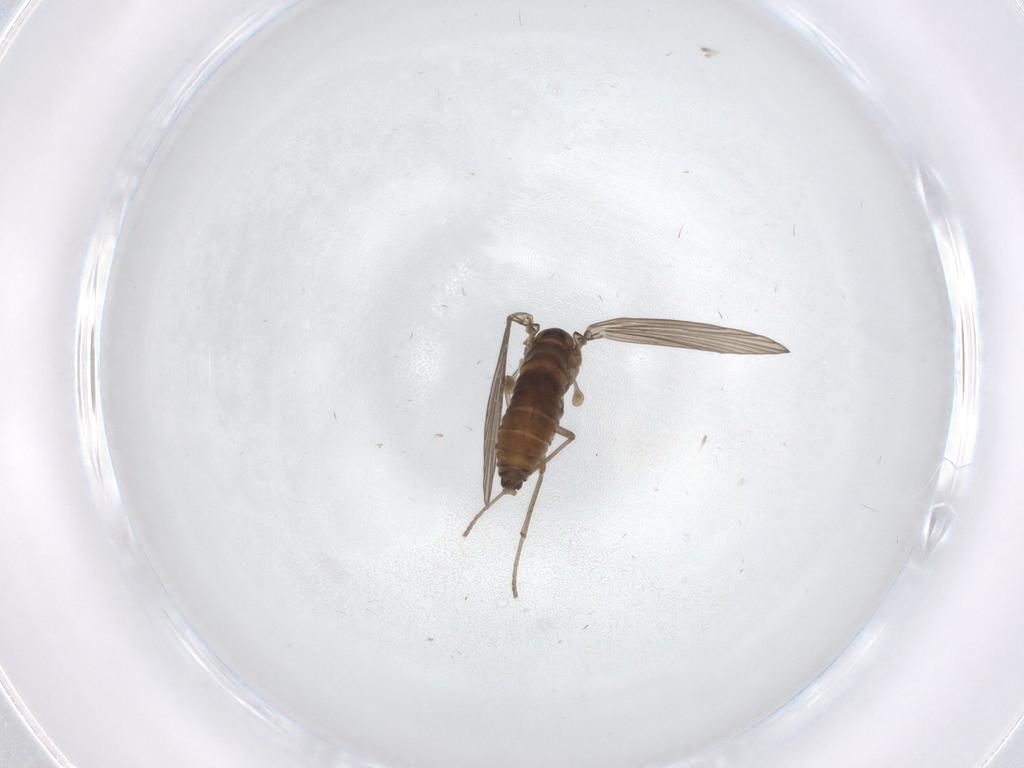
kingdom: Animalia
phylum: Arthropoda
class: Insecta
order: Diptera
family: Psychodidae
